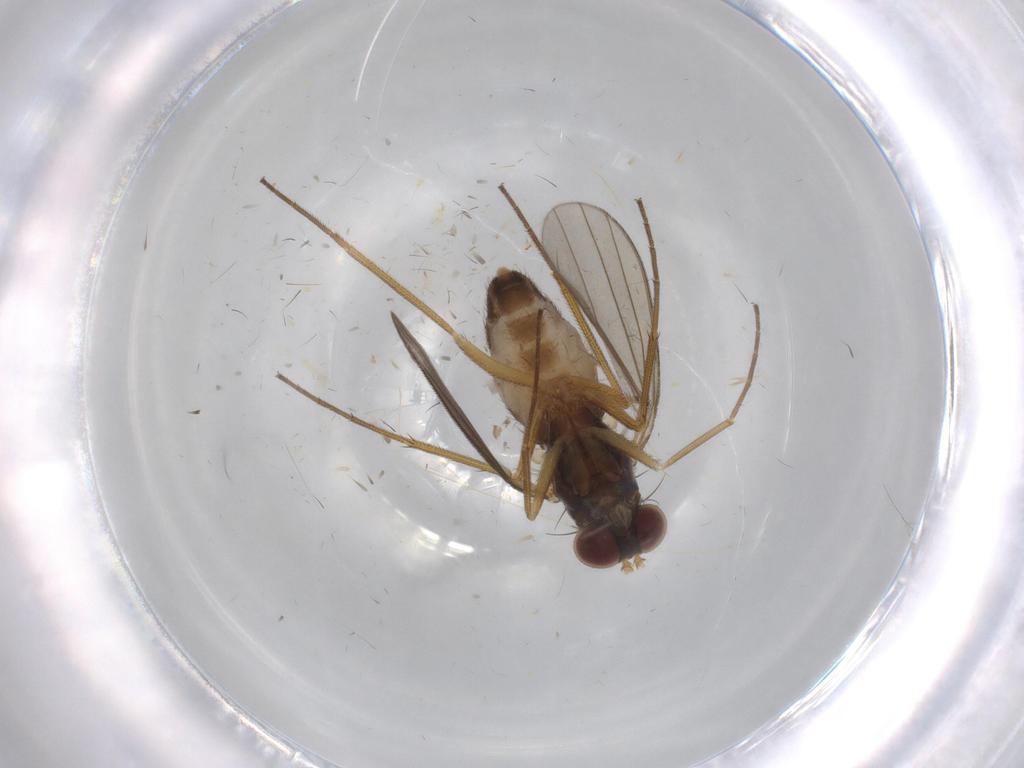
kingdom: Animalia
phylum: Arthropoda
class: Insecta
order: Diptera
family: Dolichopodidae
